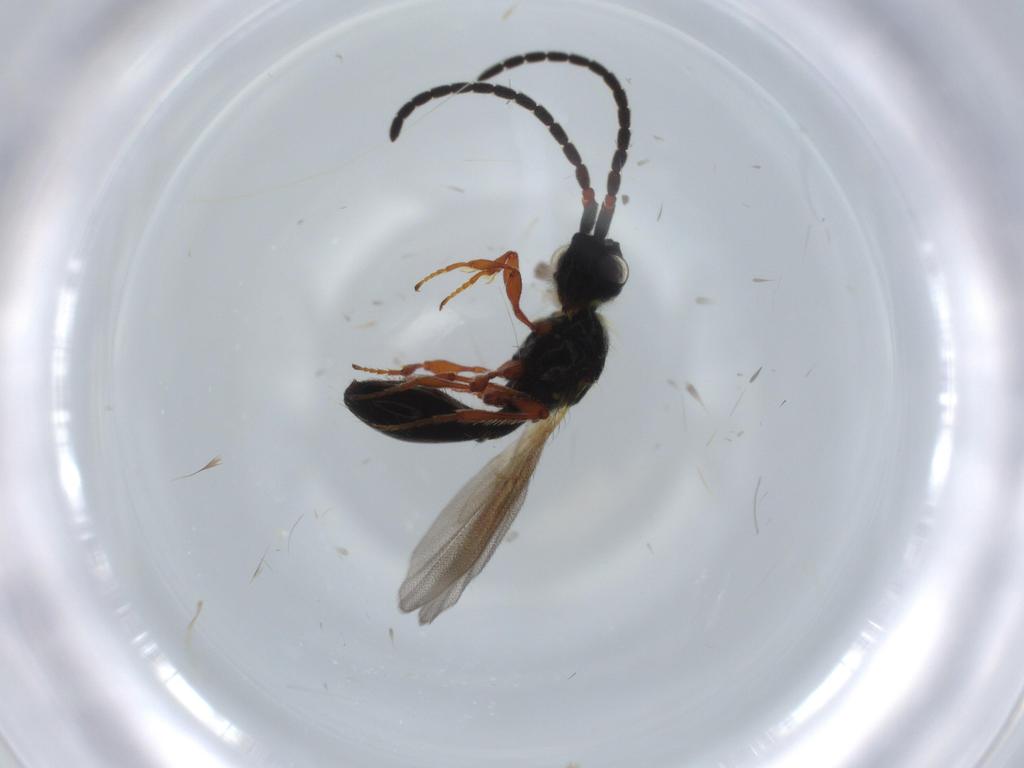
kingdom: Animalia
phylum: Arthropoda
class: Insecta
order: Hymenoptera
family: Diapriidae
